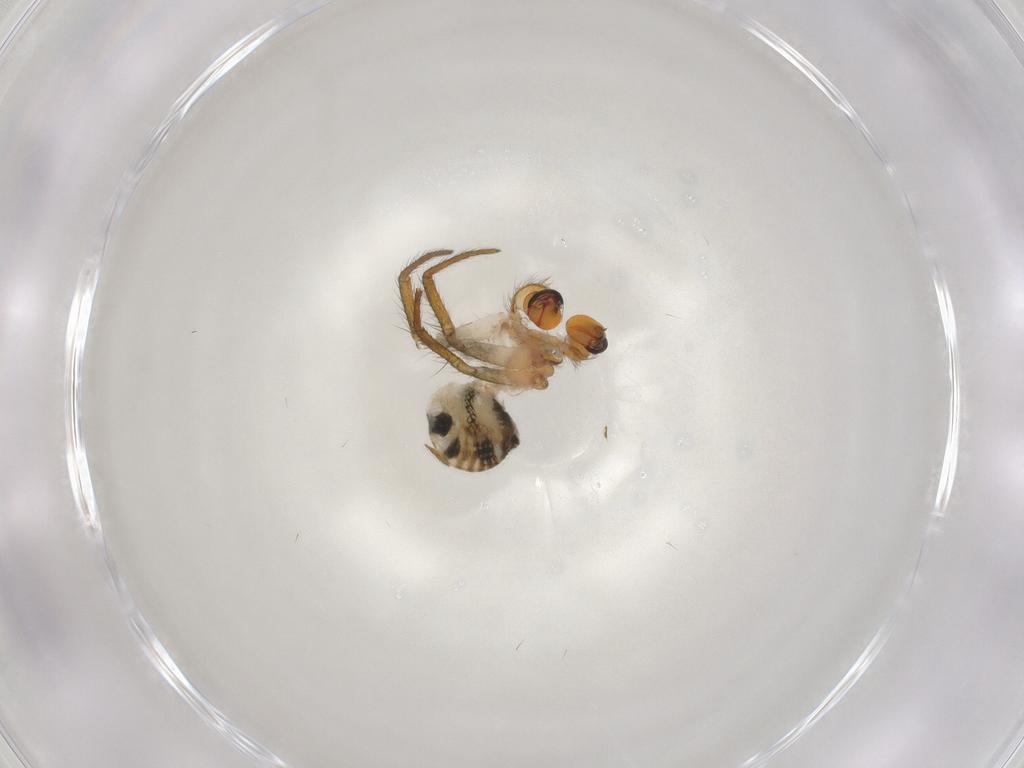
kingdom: Animalia
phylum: Arthropoda
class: Arachnida
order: Araneae
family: Theridiosomatidae
